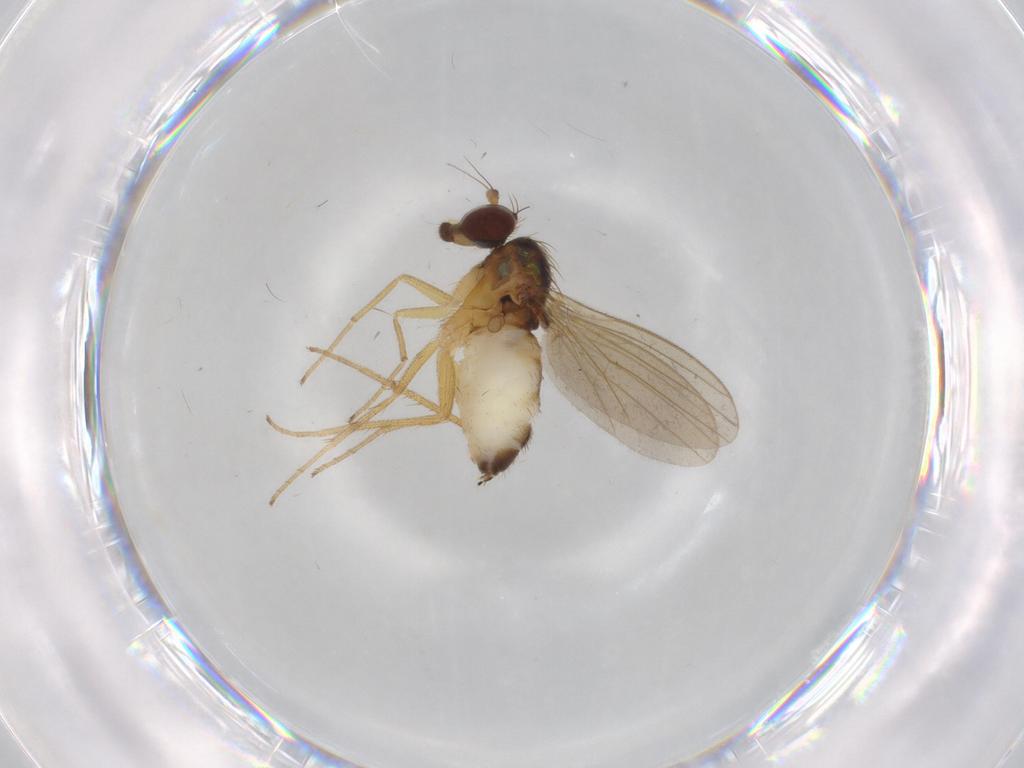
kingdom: Animalia
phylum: Arthropoda
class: Insecta
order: Diptera
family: Dolichopodidae
